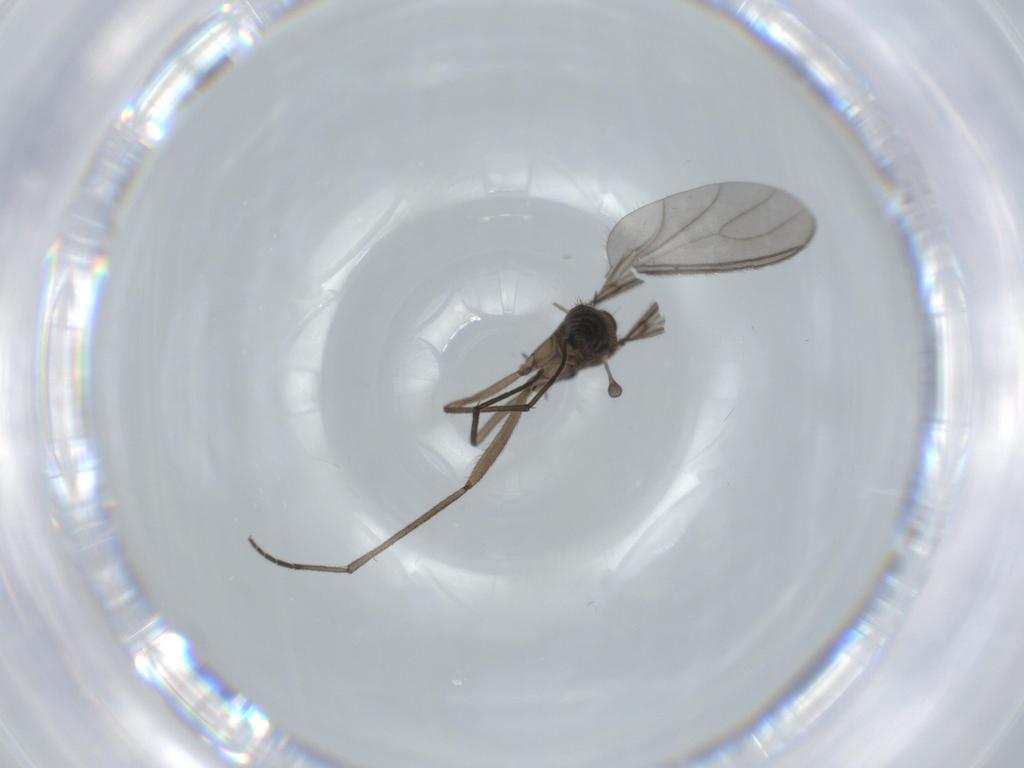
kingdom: Animalia
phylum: Arthropoda
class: Insecta
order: Diptera
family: Sciaridae
